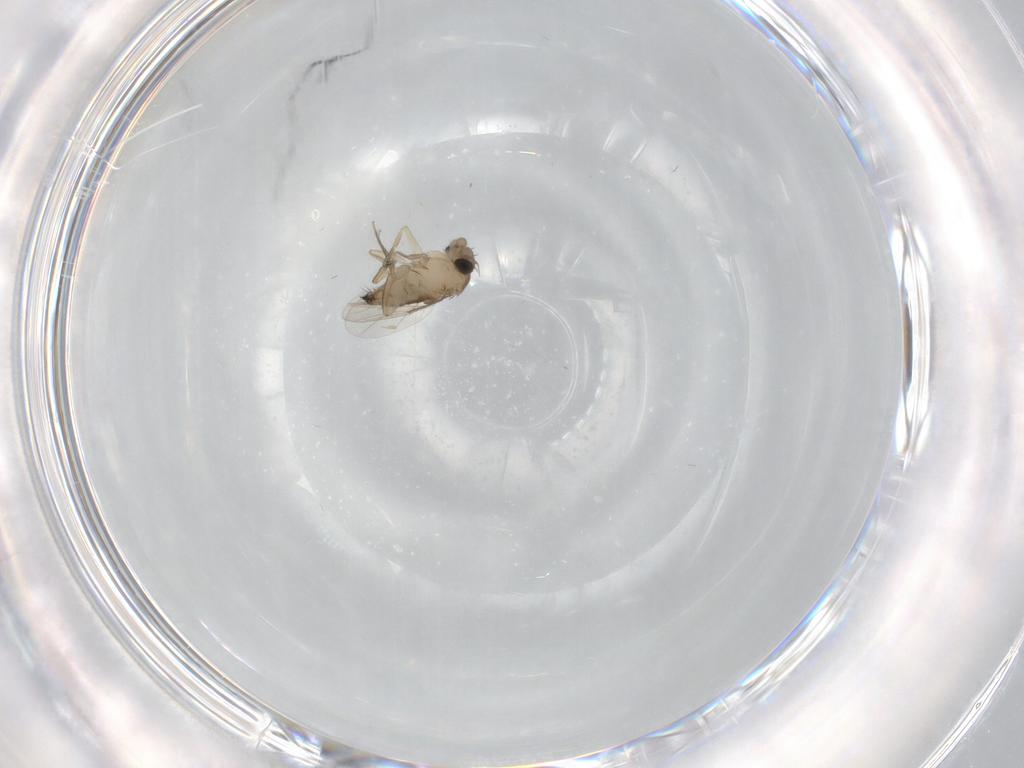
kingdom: Animalia
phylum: Arthropoda
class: Insecta
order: Diptera
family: Phoridae
